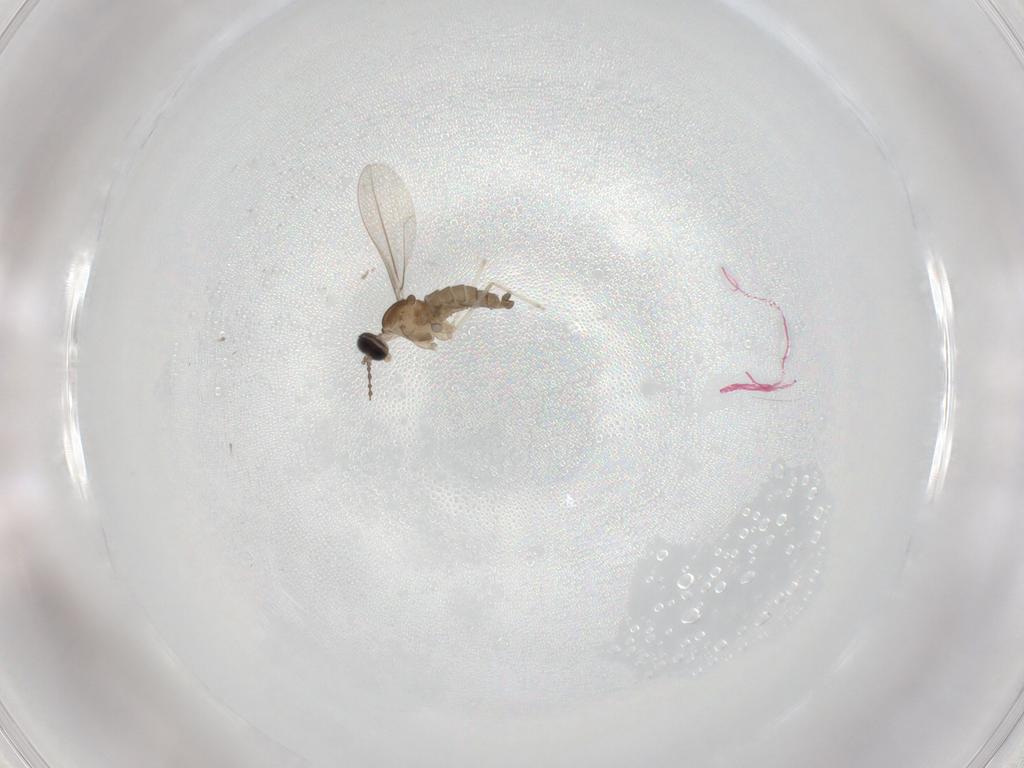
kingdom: Animalia
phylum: Arthropoda
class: Insecta
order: Diptera
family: Cecidomyiidae
